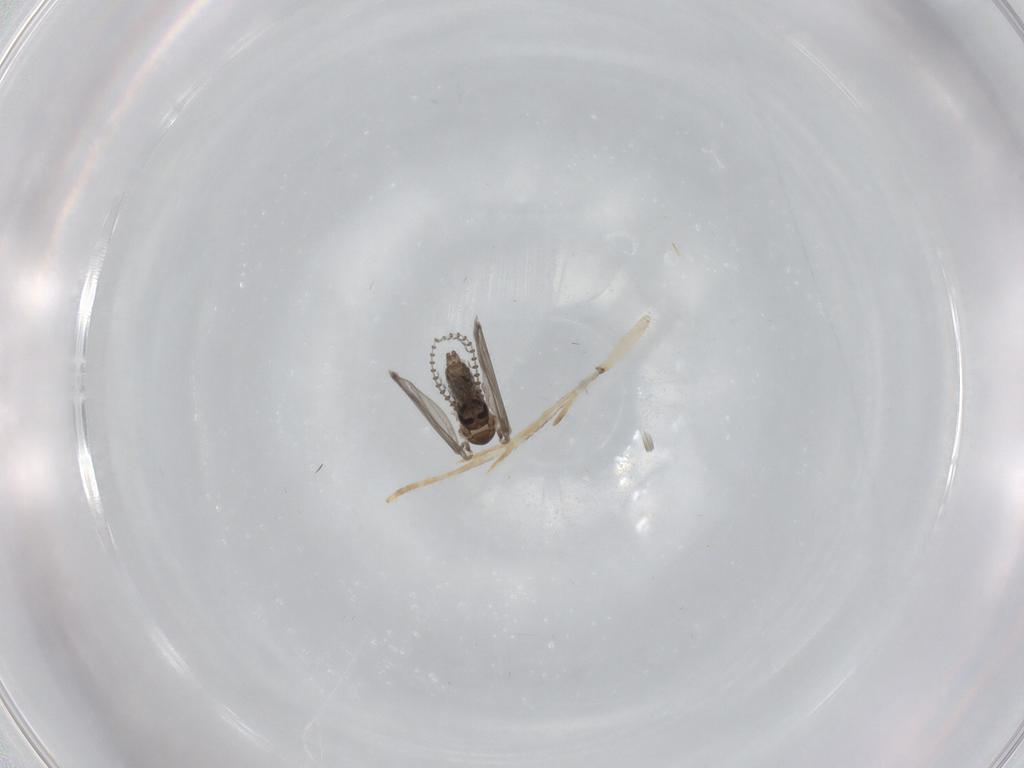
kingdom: Animalia
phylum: Arthropoda
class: Insecta
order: Diptera
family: Psychodidae
